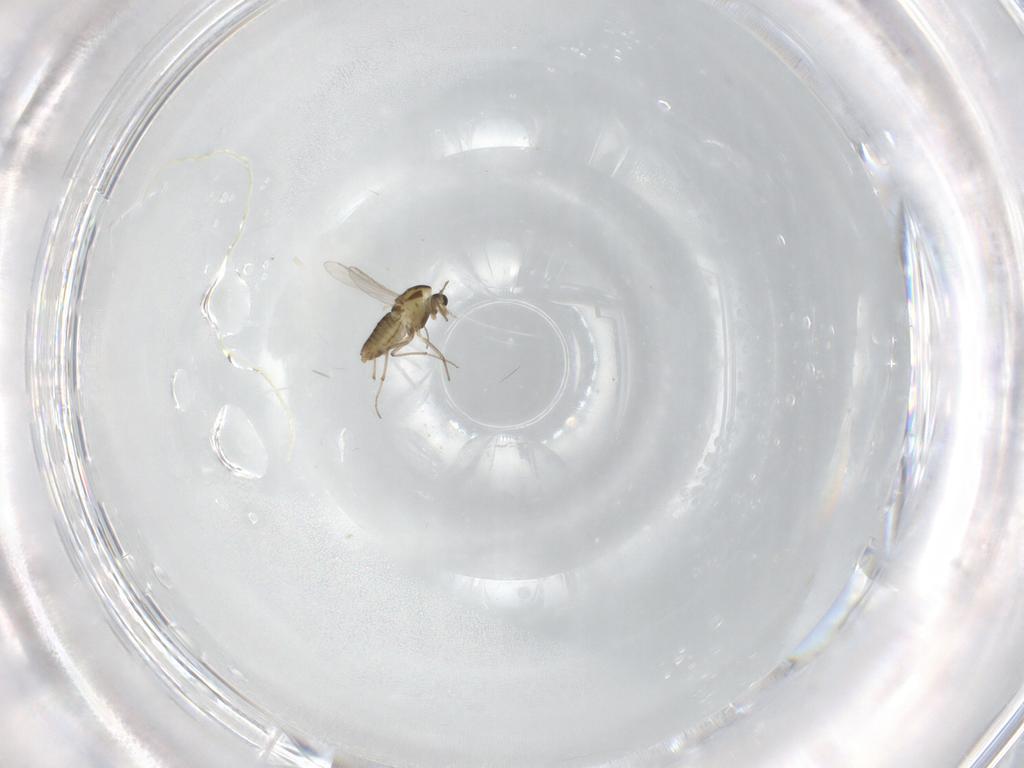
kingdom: Animalia
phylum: Arthropoda
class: Insecta
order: Diptera
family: Chironomidae
